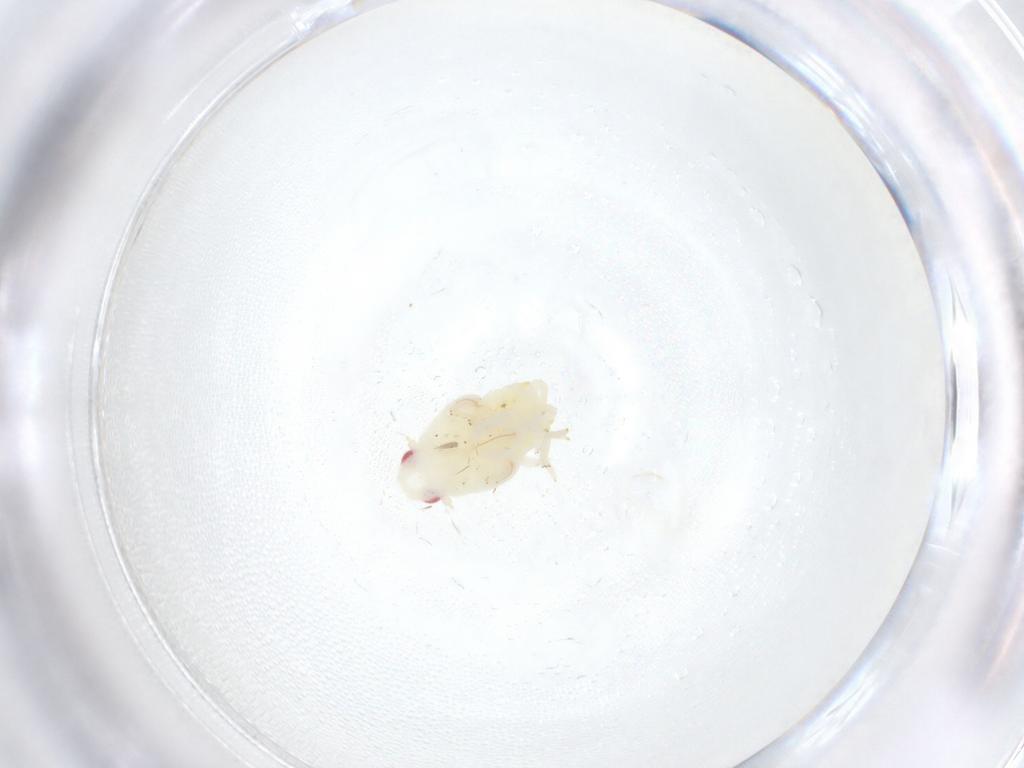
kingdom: Animalia
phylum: Arthropoda
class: Insecta
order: Hemiptera
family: Flatidae
